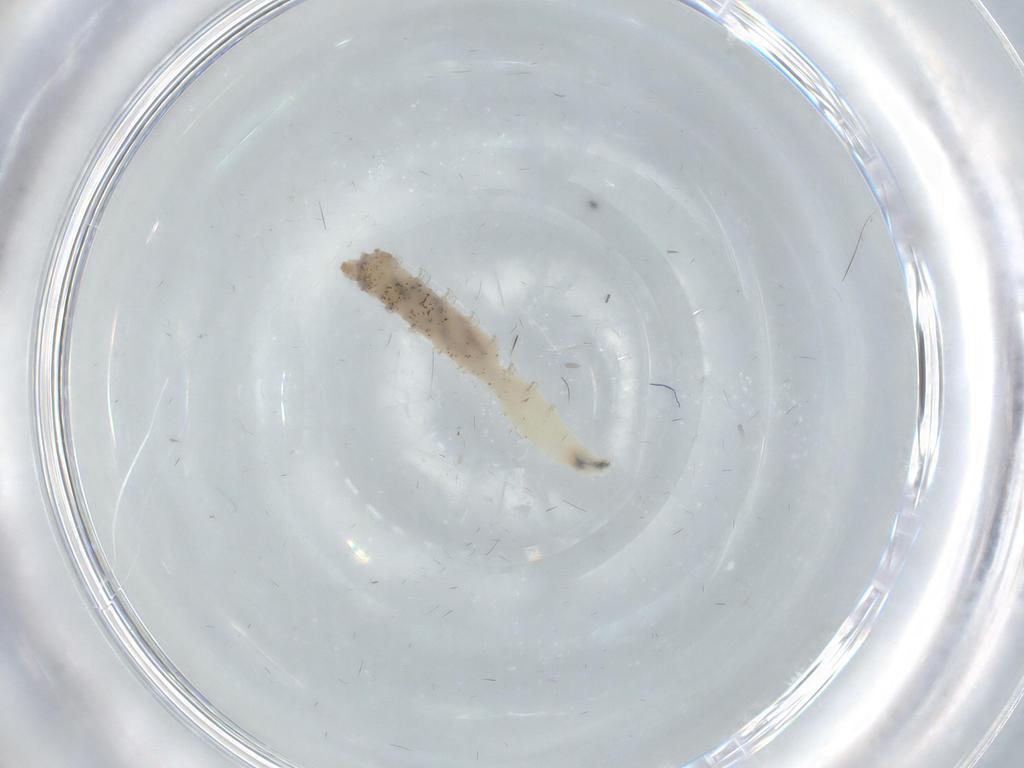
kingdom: Animalia
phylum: Arthropoda
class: Insecta
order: Diptera
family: Drosophilidae
